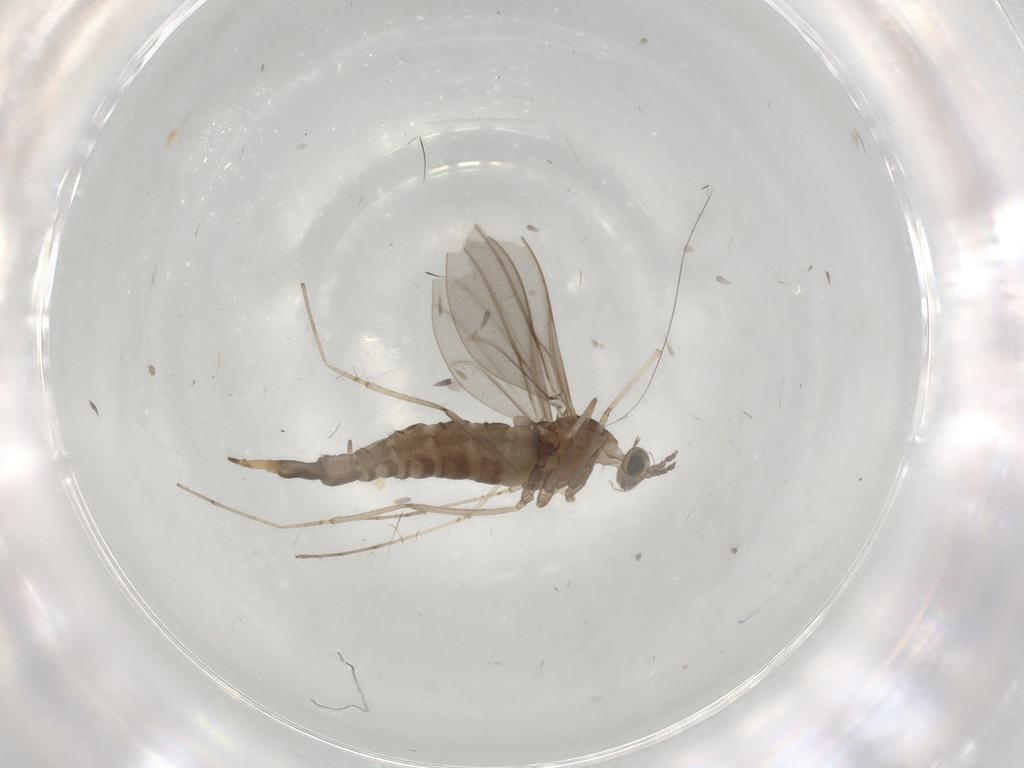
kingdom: Animalia
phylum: Arthropoda
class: Insecta
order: Diptera
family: Cecidomyiidae
